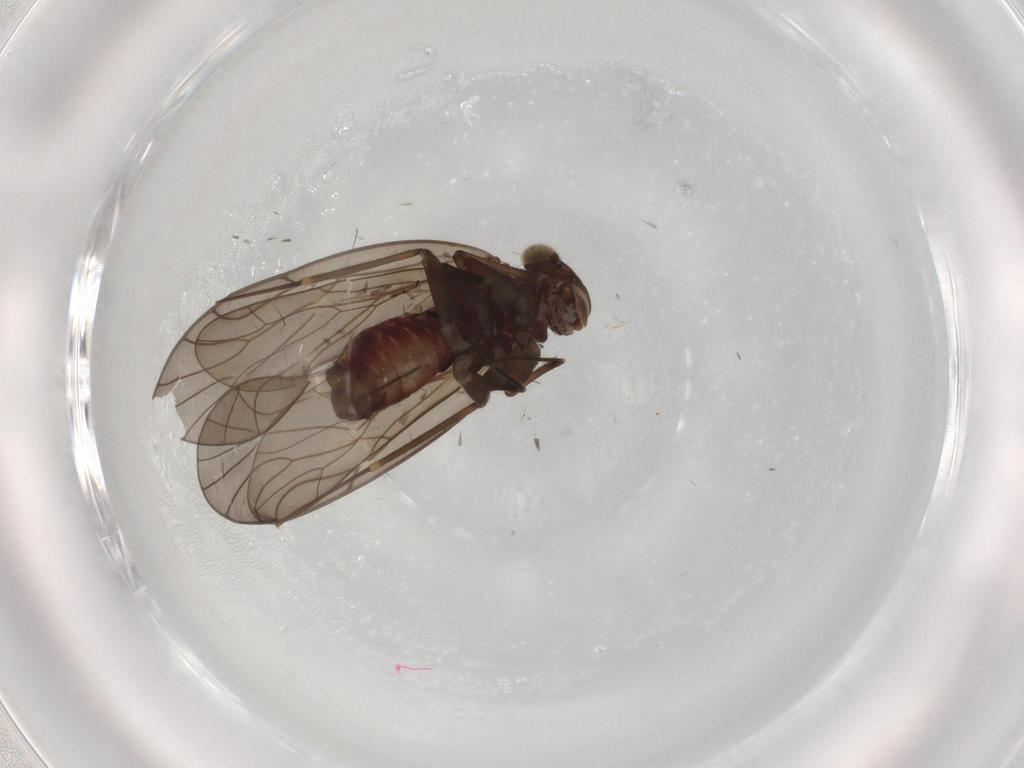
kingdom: Animalia
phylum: Arthropoda
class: Insecta
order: Psocodea
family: Philotarsidae
